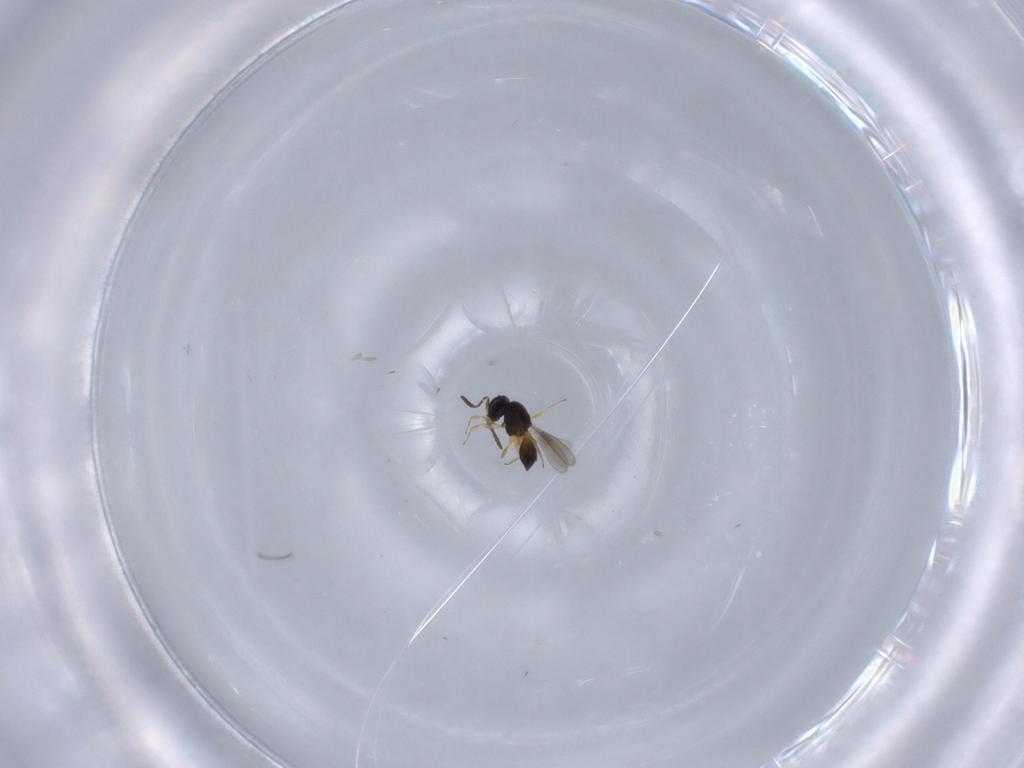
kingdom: Animalia
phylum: Arthropoda
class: Insecta
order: Hymenoptera
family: Scelionidae
